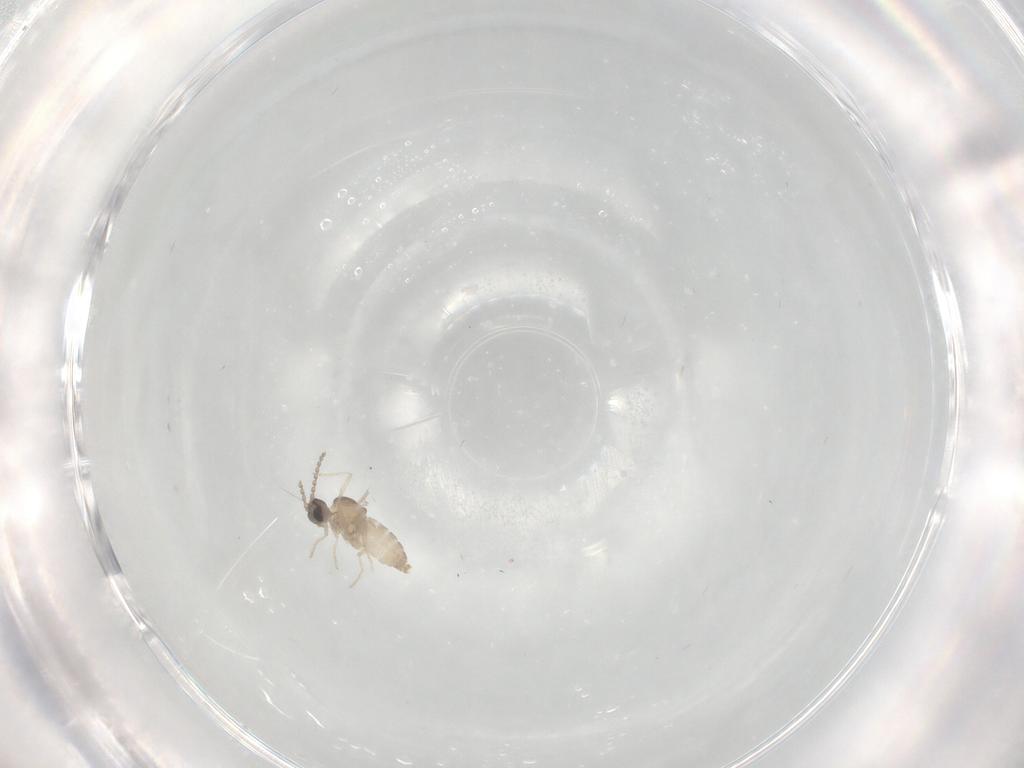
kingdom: Animalia
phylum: Arthropoda
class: Insecta
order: Diptera
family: Cecidomyiidae
